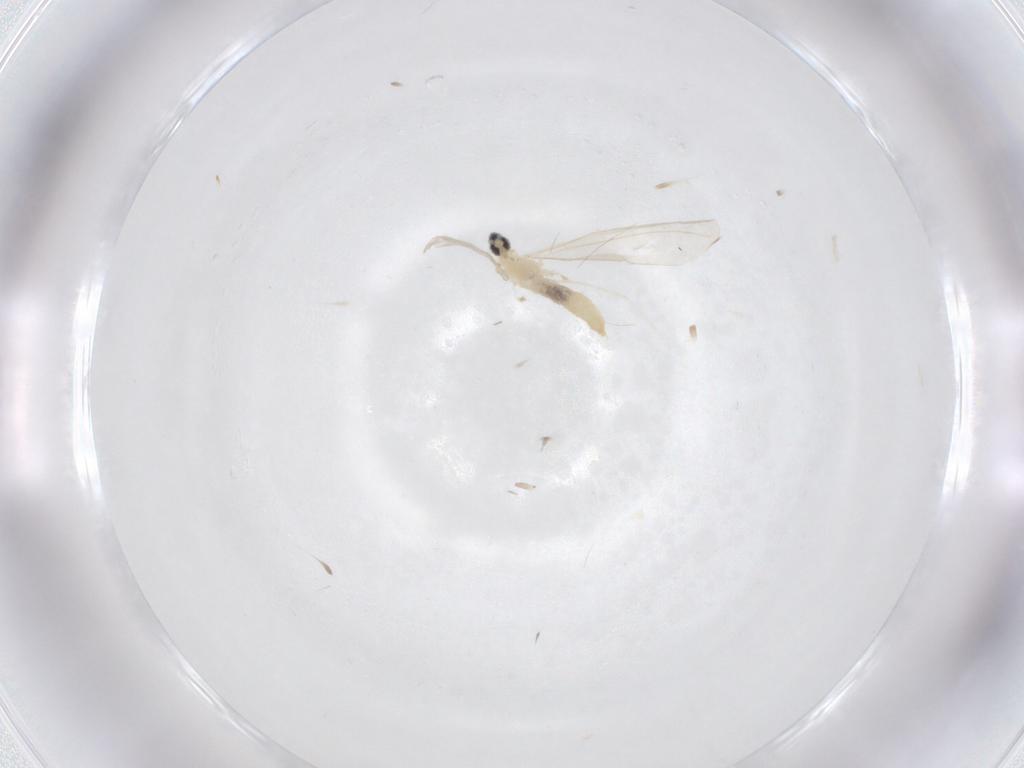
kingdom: Animalia
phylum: Arthropoda
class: Insecta
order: Diptera
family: Cecidomyiidae
